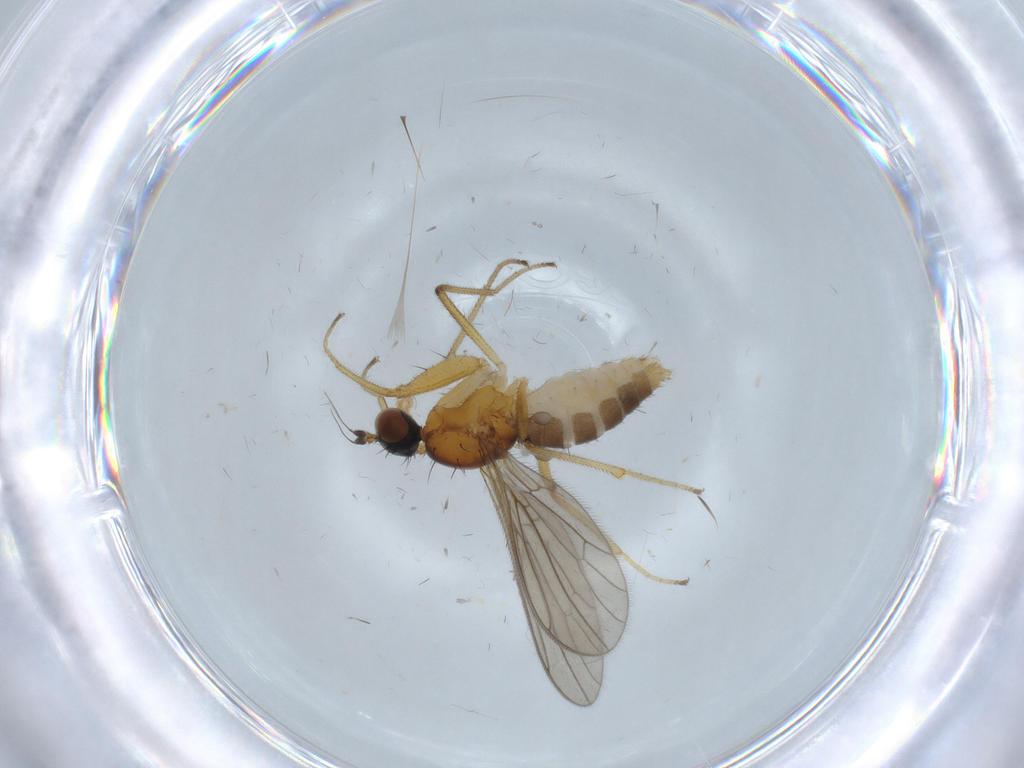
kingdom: Animalia
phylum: Arthropoda
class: Insecta
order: Diptera
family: Empididae
